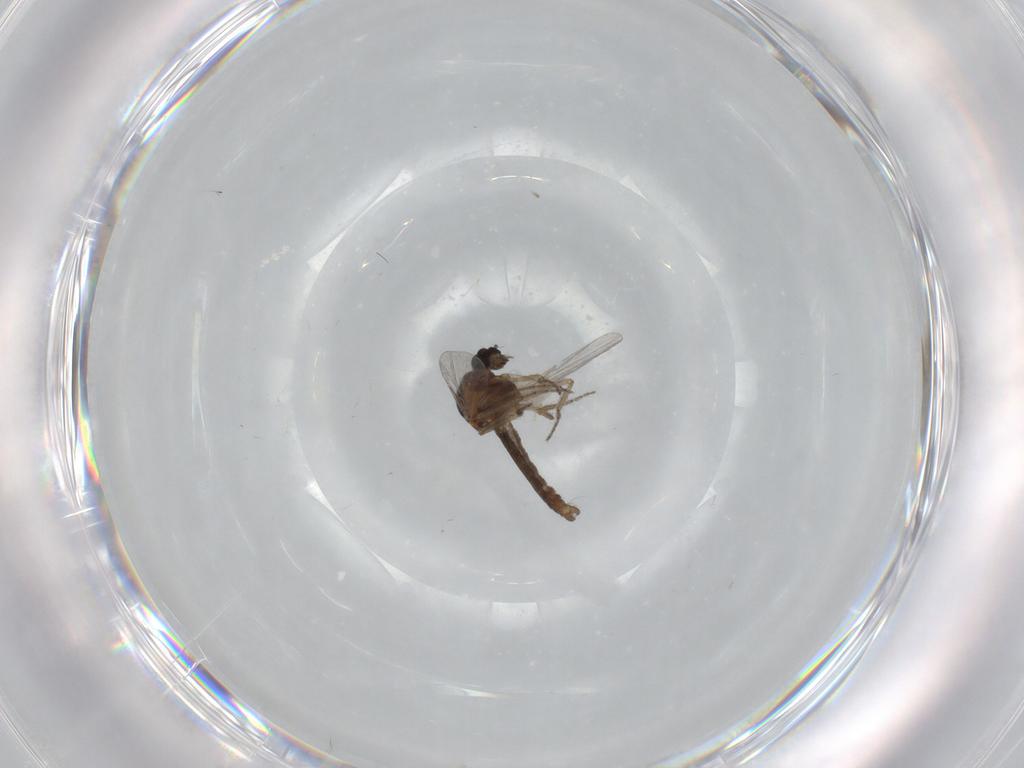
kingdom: Animalia
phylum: Arthropoda
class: Insecta
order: Diptera
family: Ceratopogonidae
